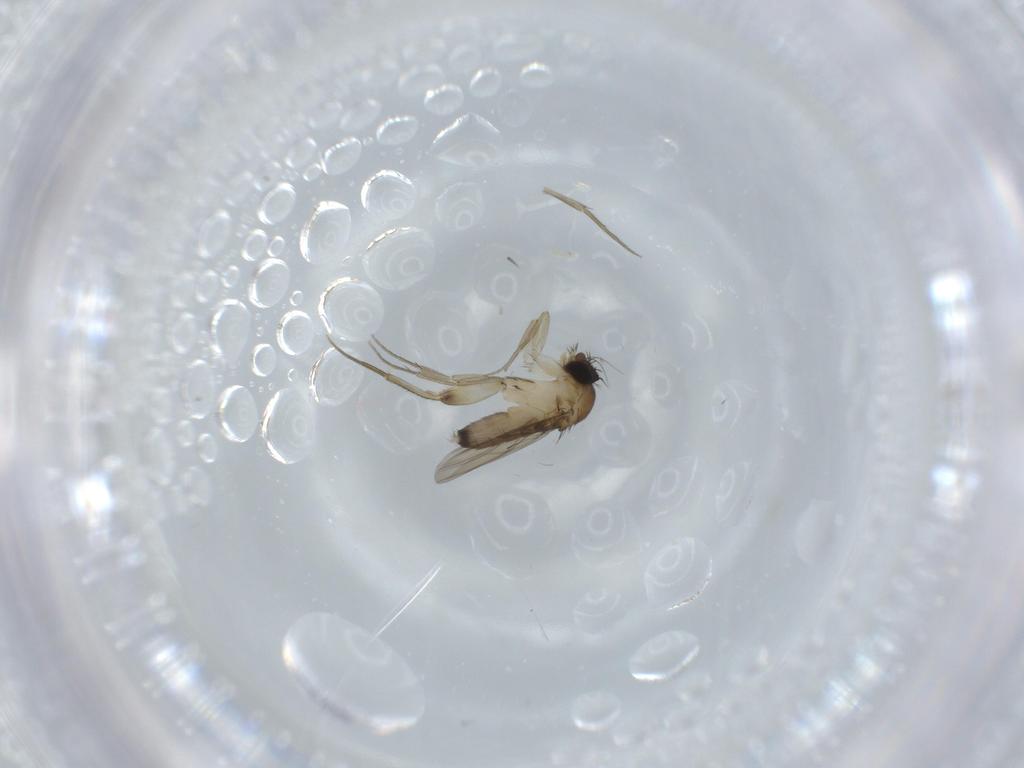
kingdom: Animalia
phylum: Arthropoda
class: Insecta
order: Diptera
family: Phoridae
